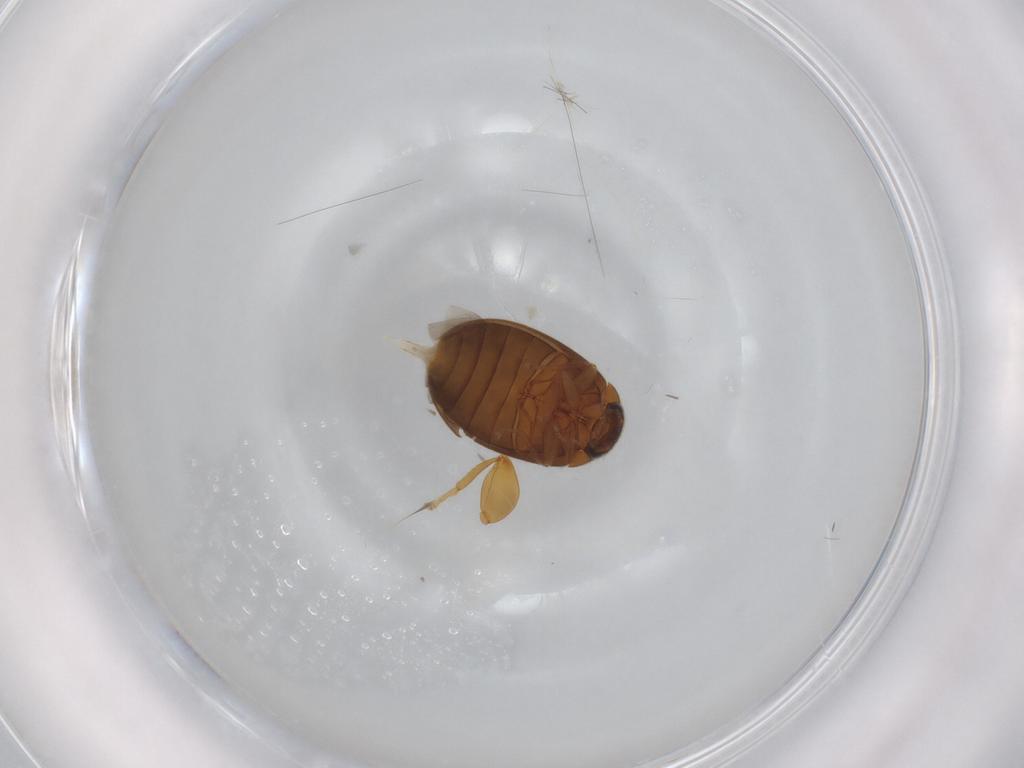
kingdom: Animalia
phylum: Arthropoda
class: Insecta
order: Coleoptera
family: Scirtidae
